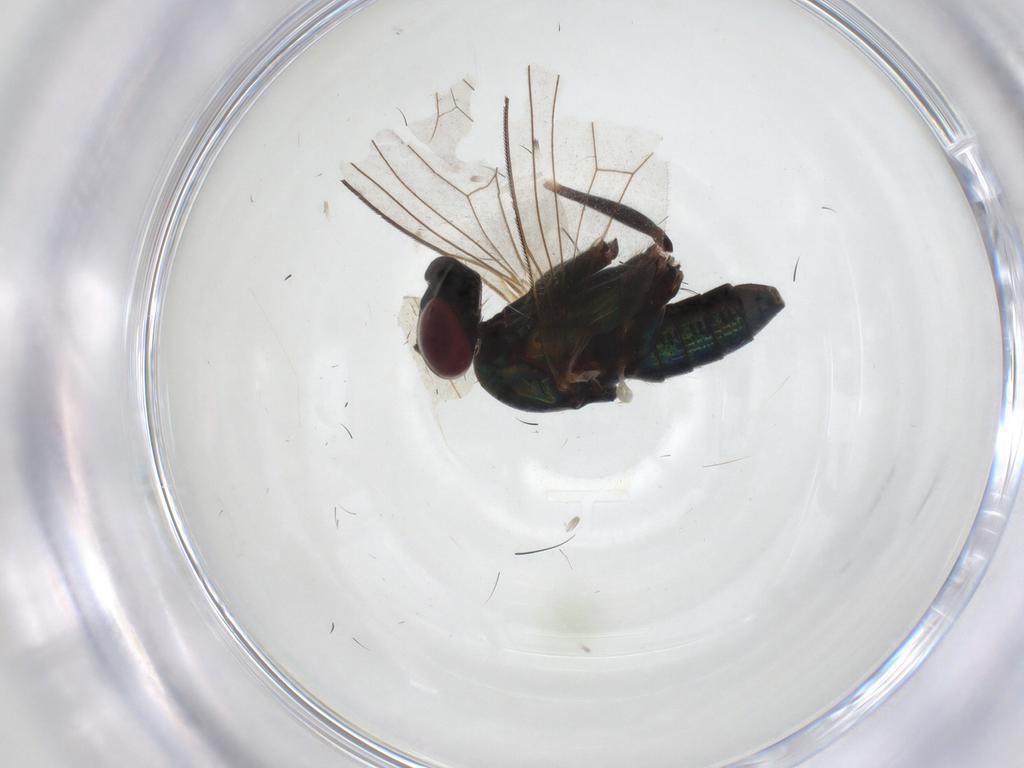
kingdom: Animalia
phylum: Arthropoda
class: Insecta
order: Diptera
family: Dolichopodidae
